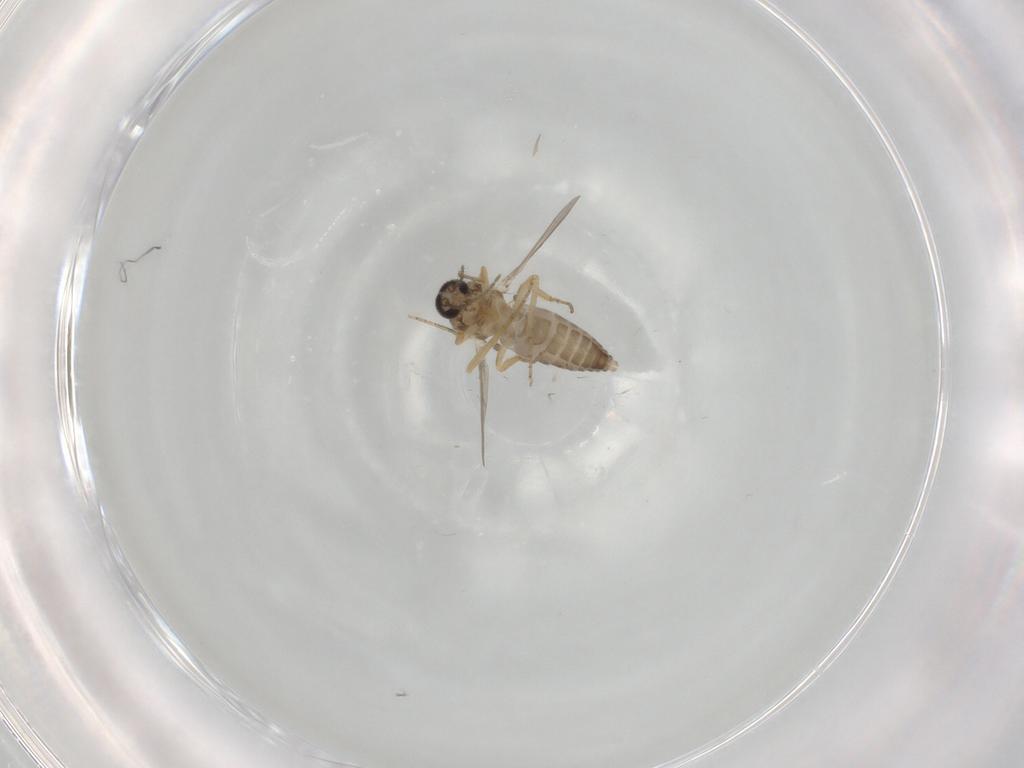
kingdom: Animalia
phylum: Arthropoda
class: Insecta
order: Diptera
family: Ceratopogonidae
